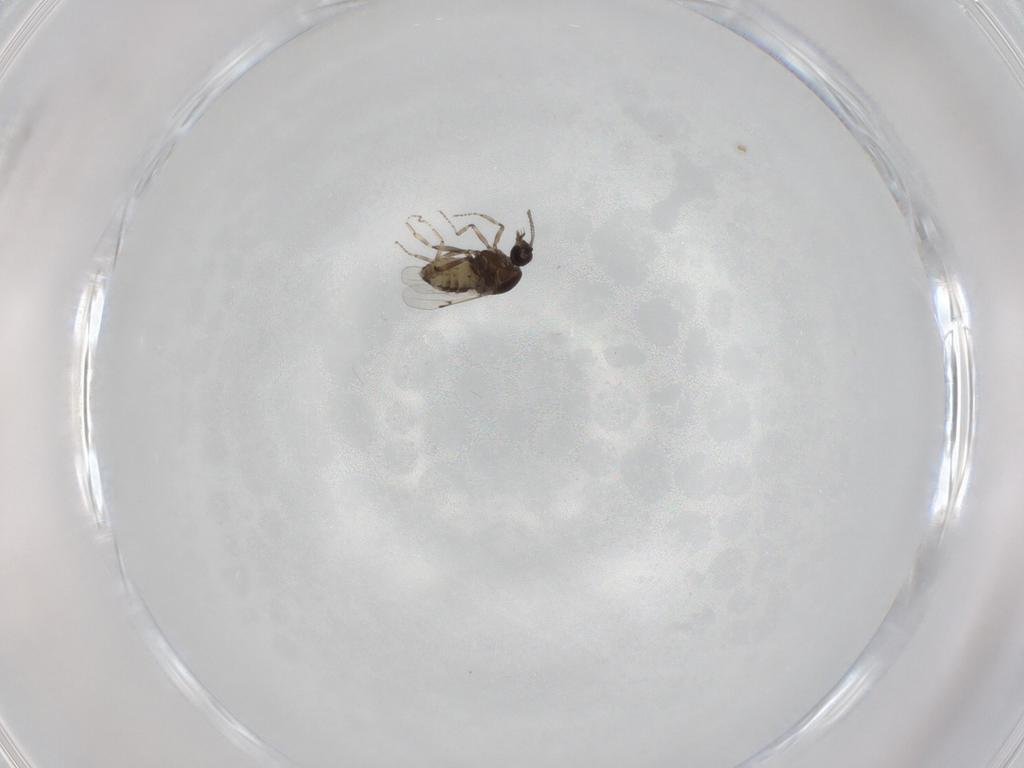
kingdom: Animalia
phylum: Arthropoda
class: Insecta
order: Diptera
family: Ceratopogonidae
